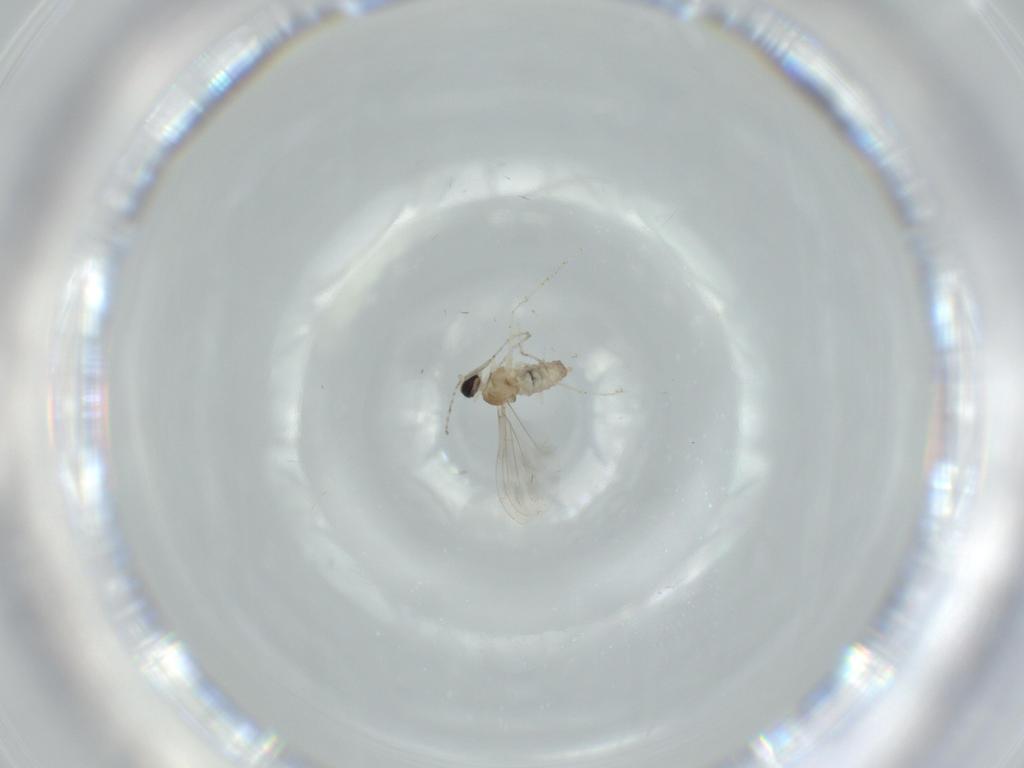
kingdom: Animalia
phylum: Arthropoda
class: Insecta
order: Diptera
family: Cecidomyiidae
